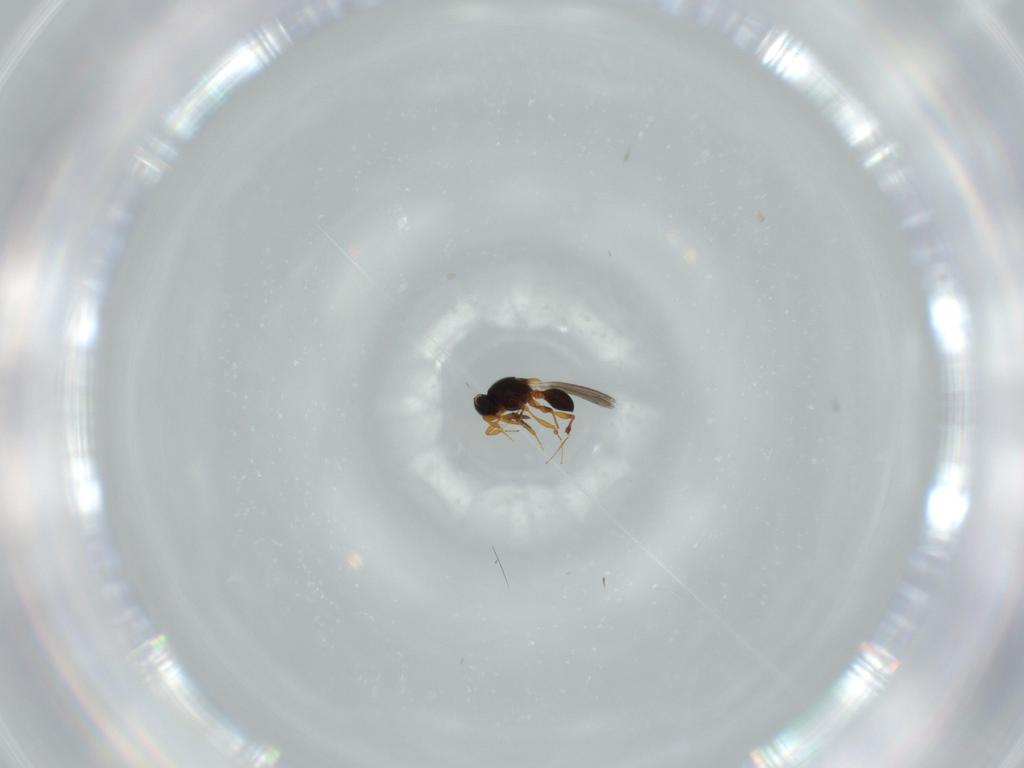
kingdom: Animalia
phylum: Arthropoda
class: Insecta
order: Hymenoptera
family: Platygastridae
